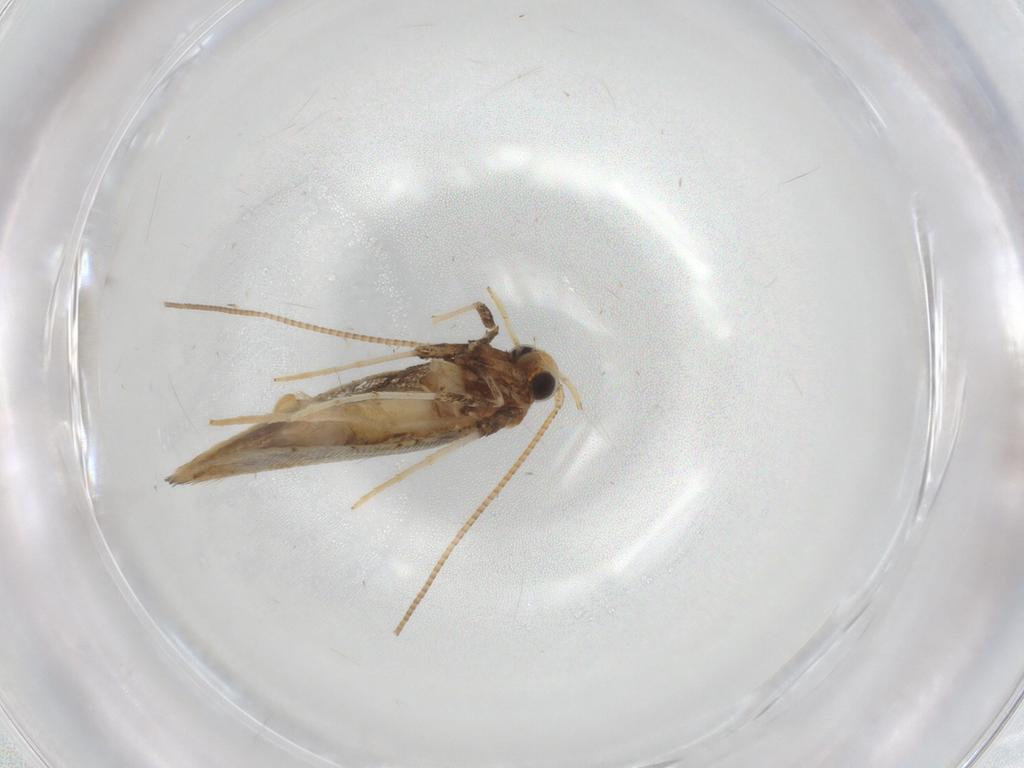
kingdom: Animalia
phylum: Arthropoda
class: Insecta
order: Lepidoptera
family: Gracillariidae
